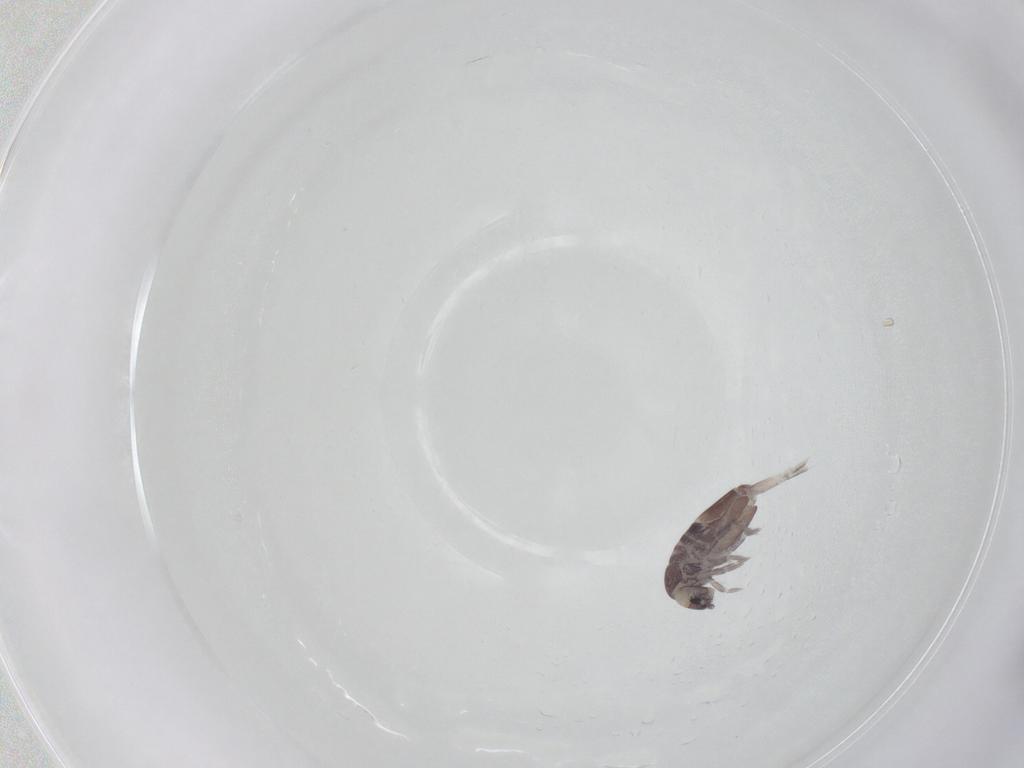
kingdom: Animalia
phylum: Arthropoda
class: Collembola
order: Entomobryomorpha
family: Entomobryidae
